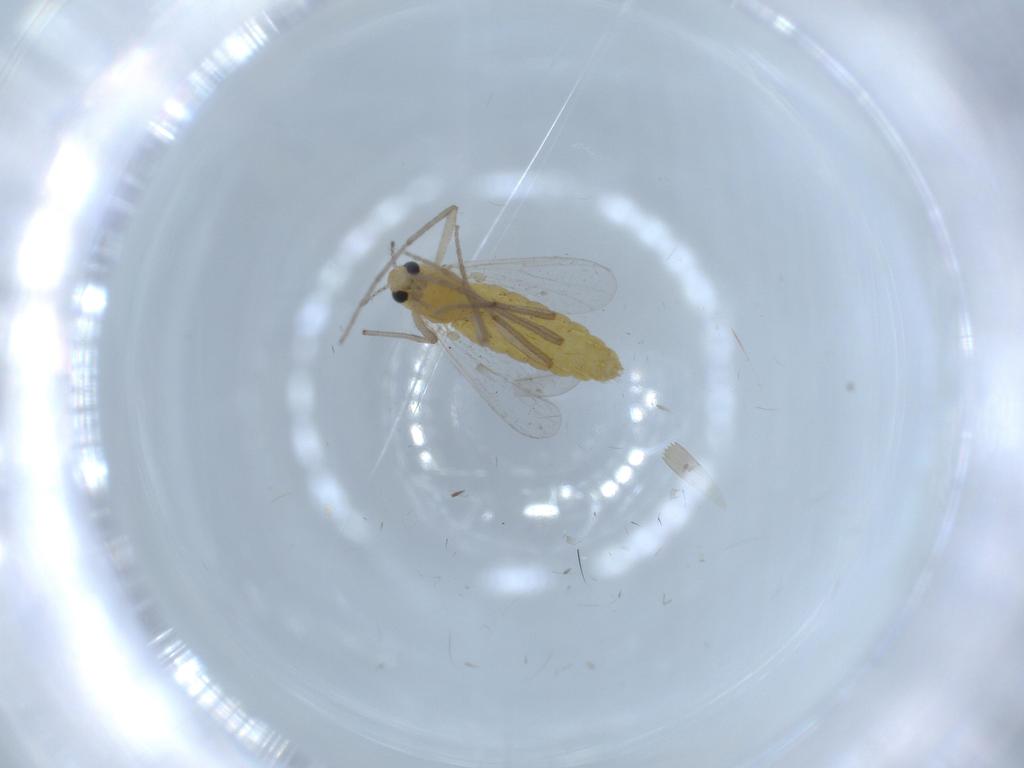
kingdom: Animalia
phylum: Arthropoda
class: Insecta
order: Diptera
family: Chironomidae
